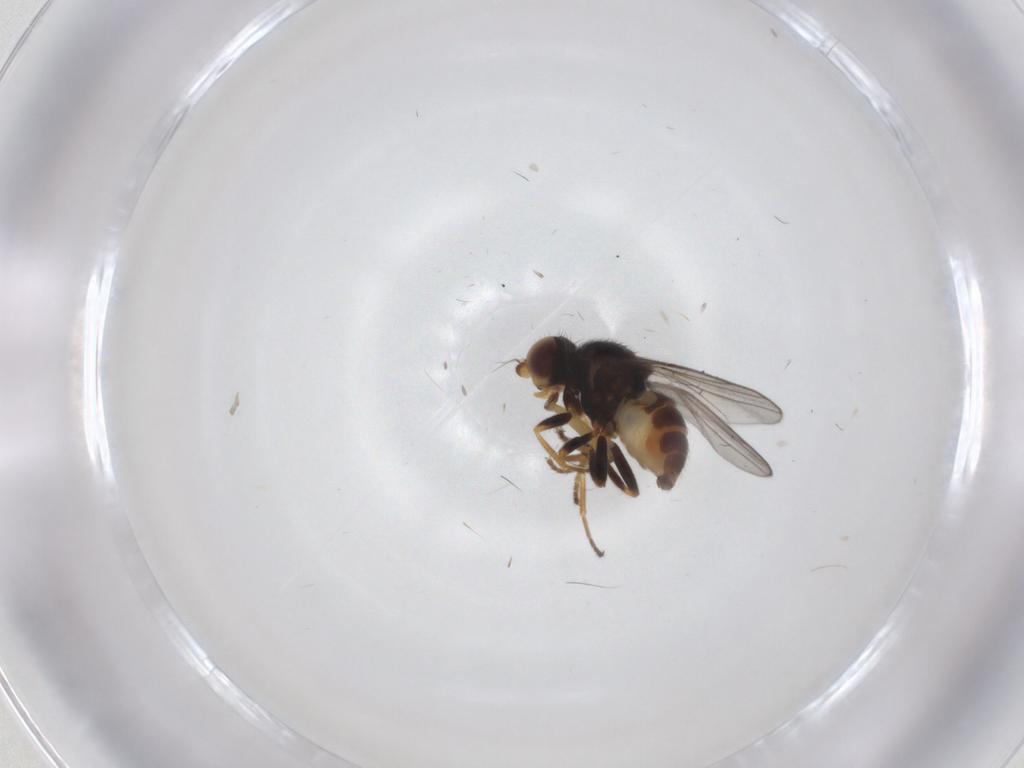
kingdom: Animalia
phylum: Arthropoda
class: Insecta
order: Diptera
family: Chloropidae
